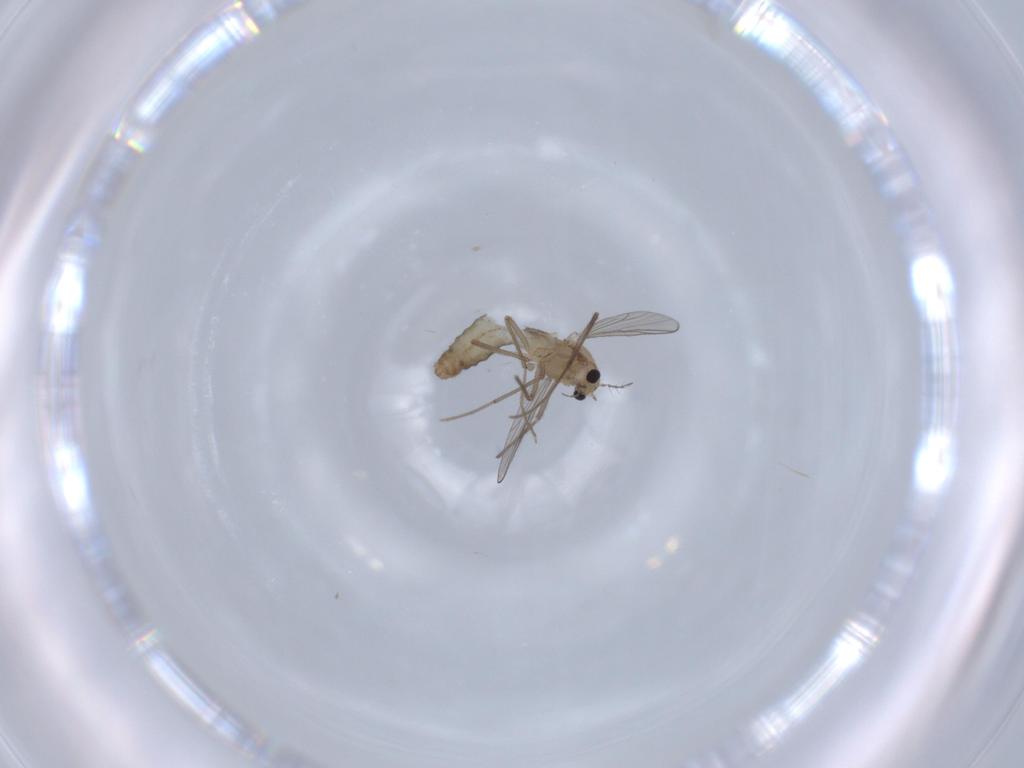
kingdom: Animalia
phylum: Arthropoda
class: Insecta
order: Diptera
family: Chironomidae
